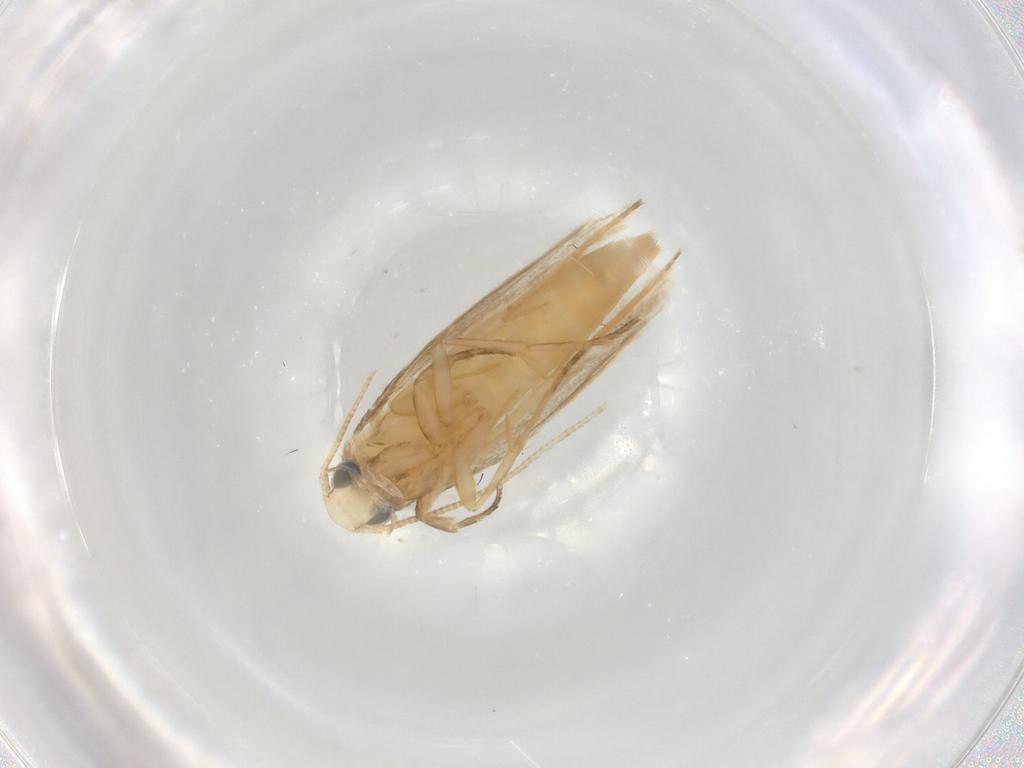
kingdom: Animalia
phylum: Arthropoda
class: Insecta
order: Lepidoptera
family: Tineidae
